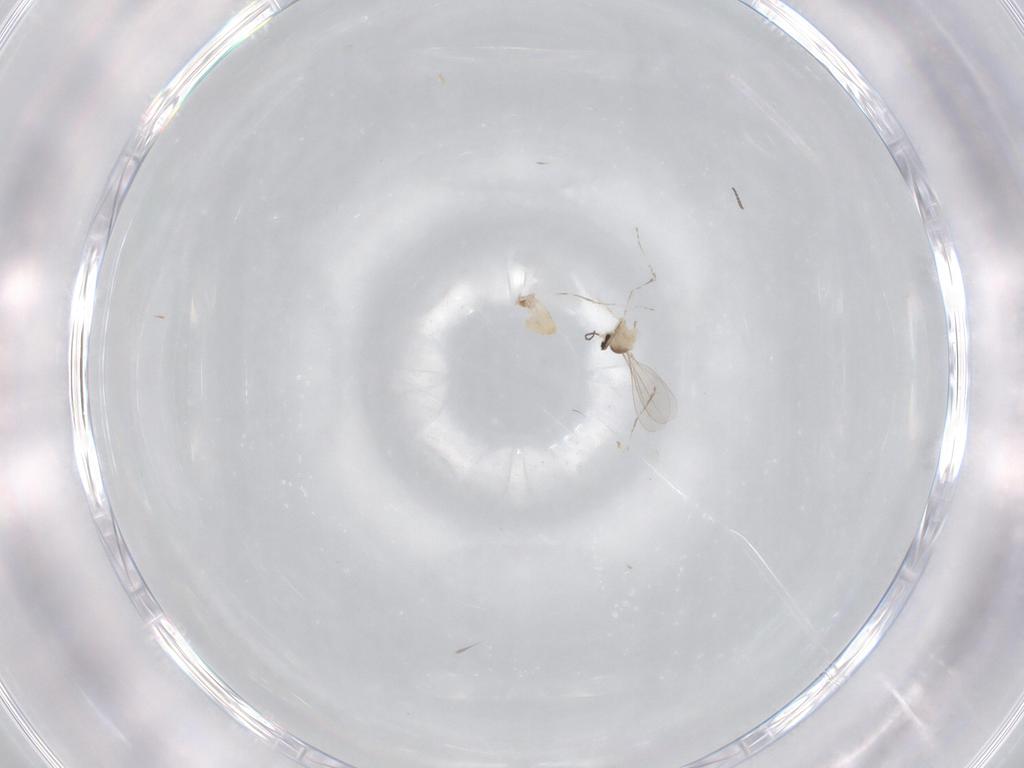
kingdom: Animalia
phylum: Arthropoda
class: Insecta
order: Diptera
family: Cecidomyiidae
